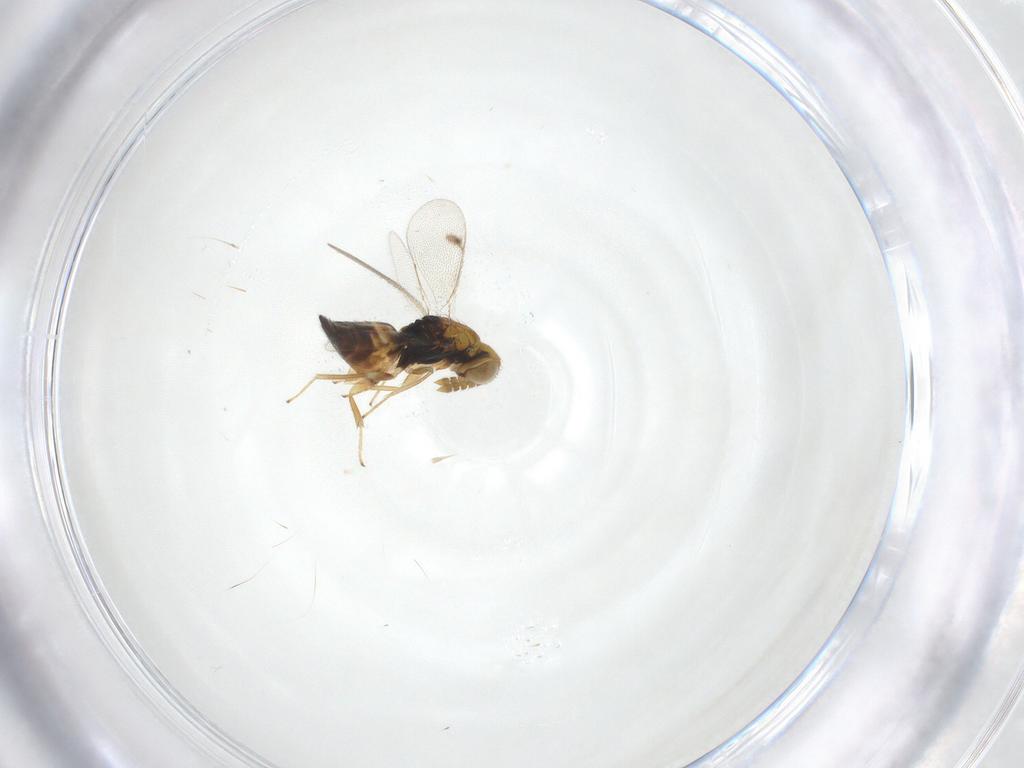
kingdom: Animalia
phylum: Arthropoda
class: Insecta
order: Hymenoptera
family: Eulophidae
